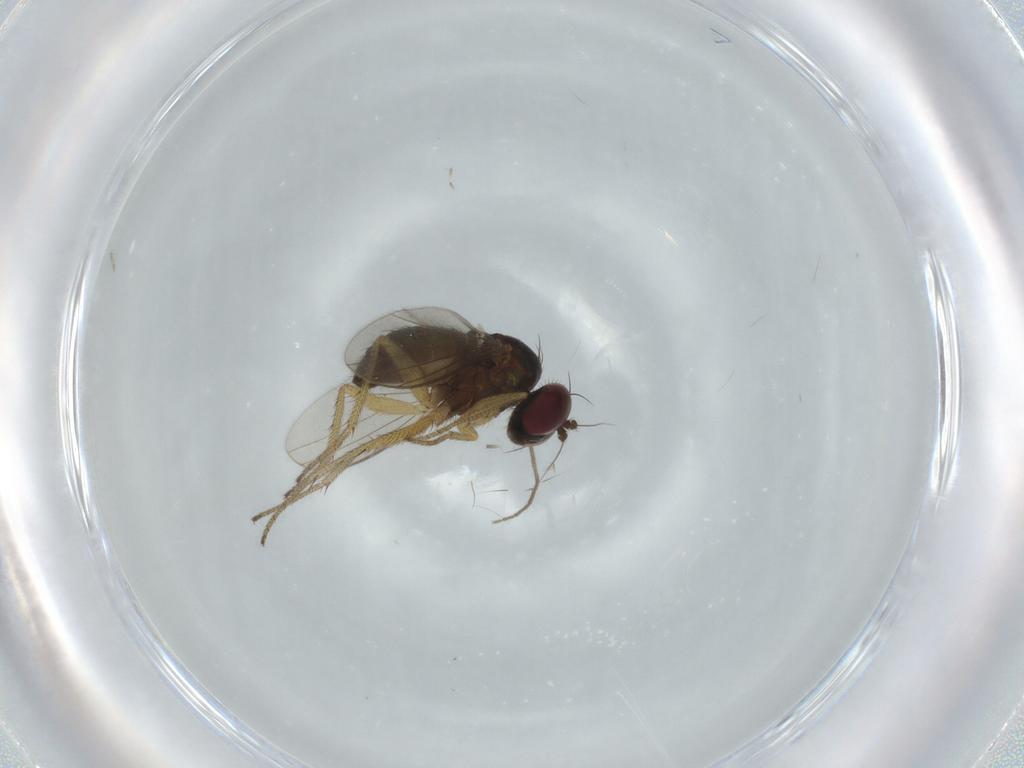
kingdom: Animalia
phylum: Arthropoda
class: Insecta
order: Diptera
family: Dolichopodidae
